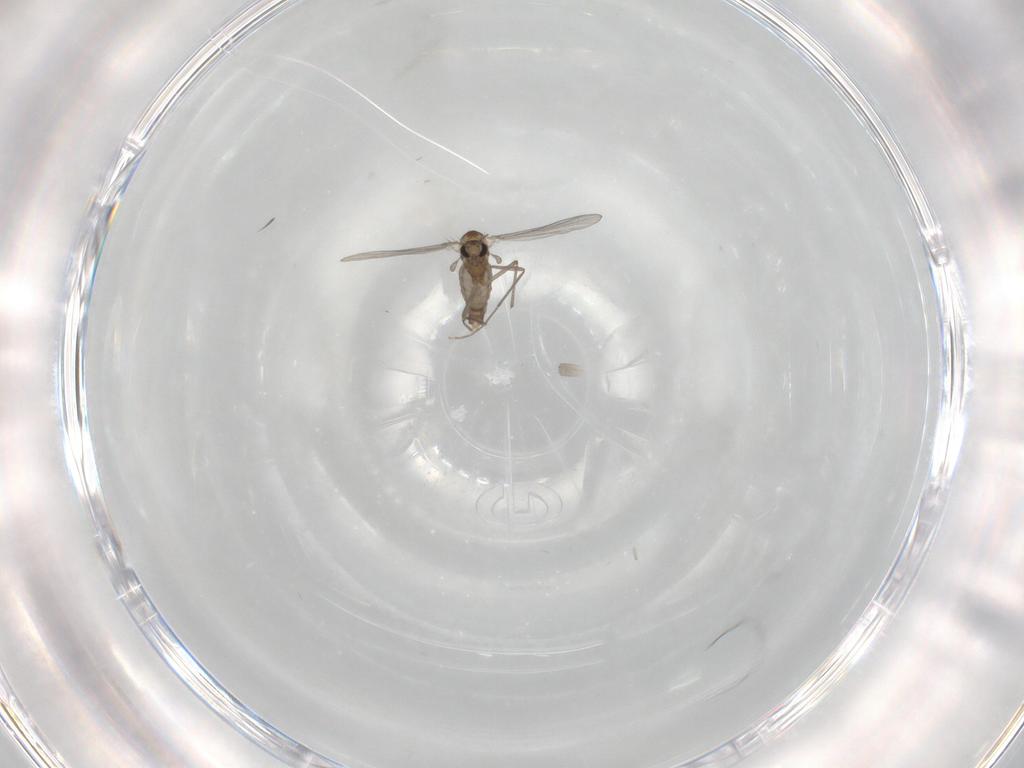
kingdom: Animalia
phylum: Arthropoda
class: Insecta
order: Diptera
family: Chironomidae
